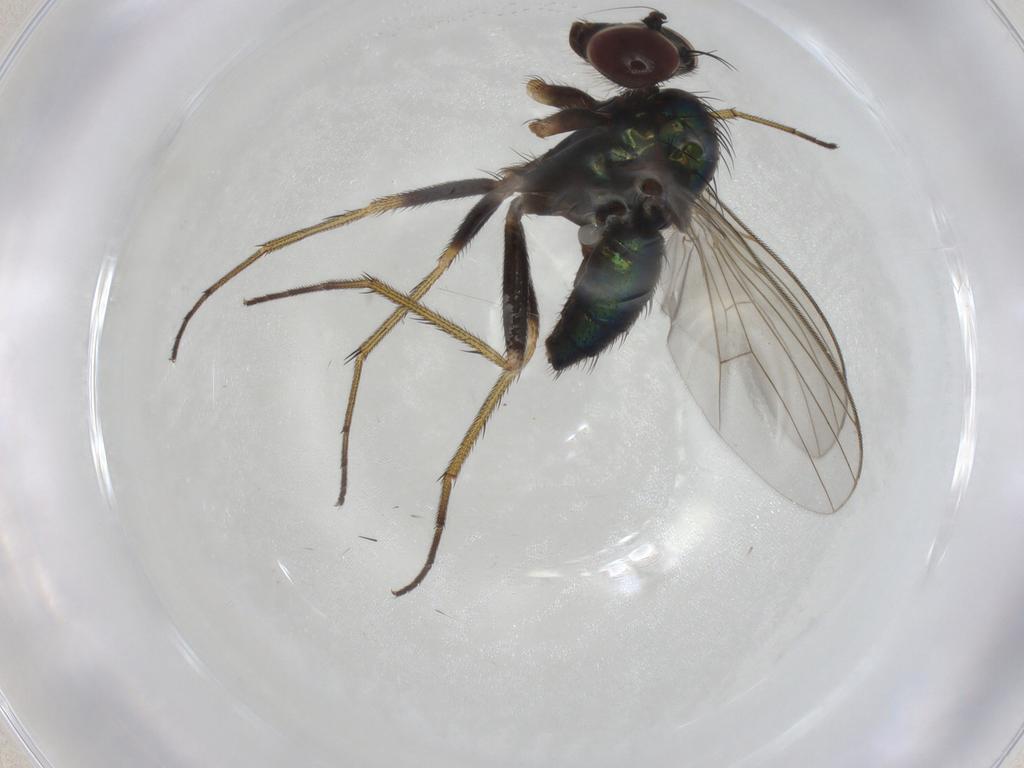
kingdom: Animalia
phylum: Arthropoda
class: Insecta
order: Diptera
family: Dolichopodidae
